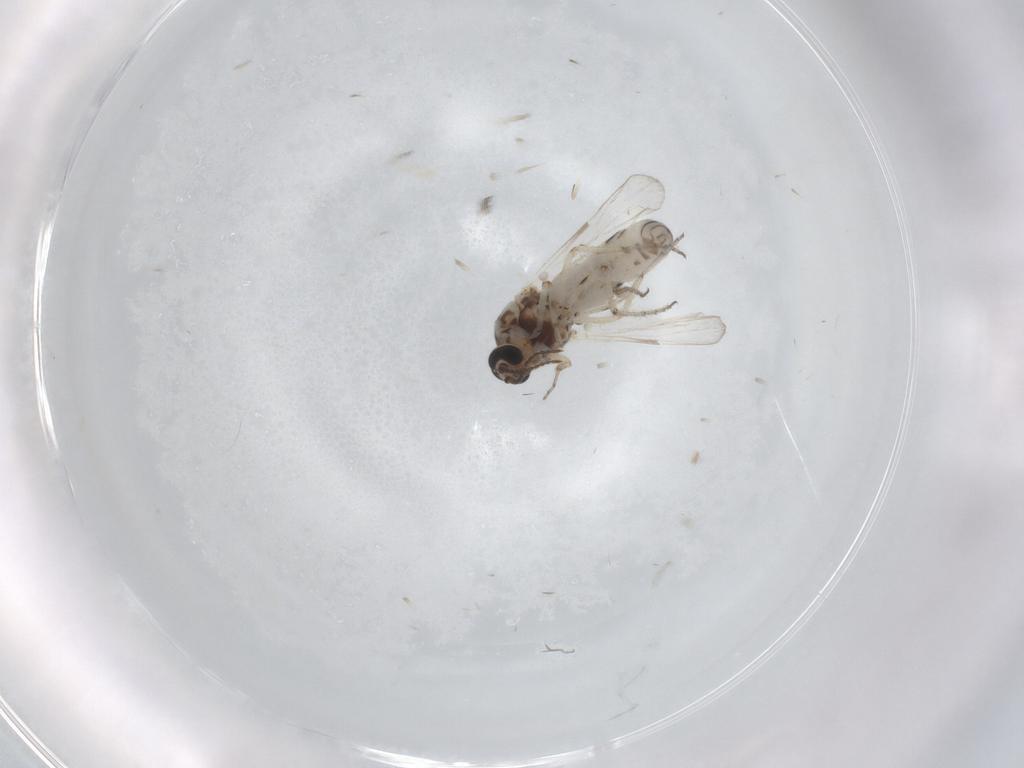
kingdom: Animalia
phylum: Arthropoda
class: Insecta
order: Diptera
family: Ceratopogonidae
